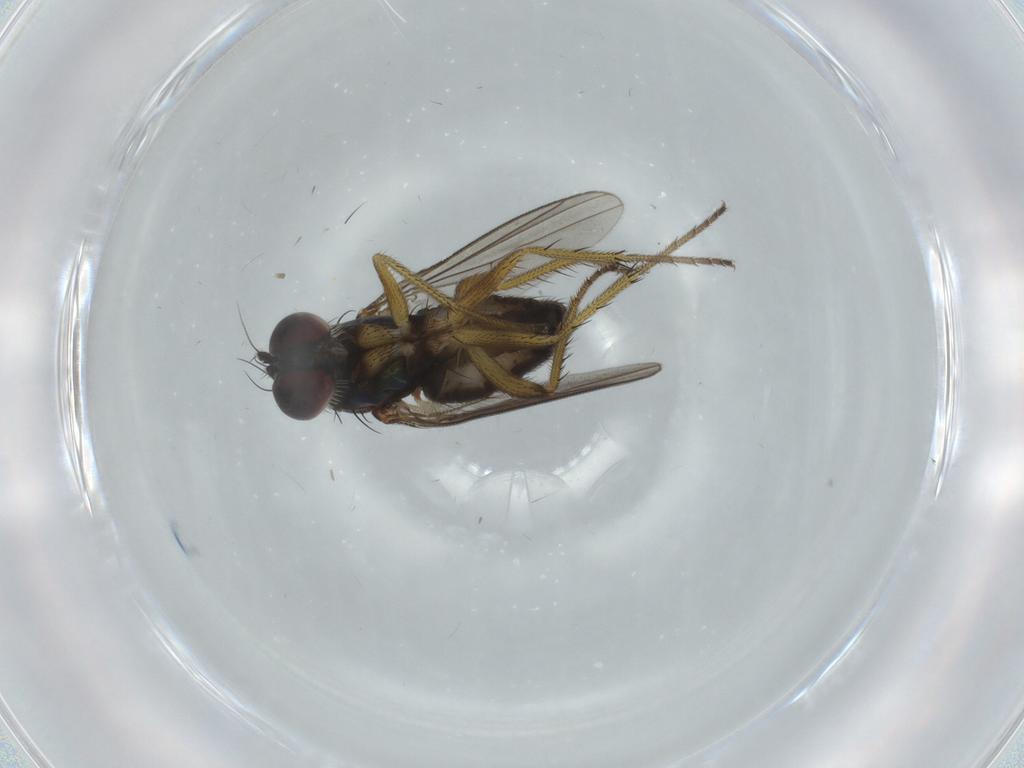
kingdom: Animalia
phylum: Arthropoda
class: Insecta
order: Diptera
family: Dolichopodidae
